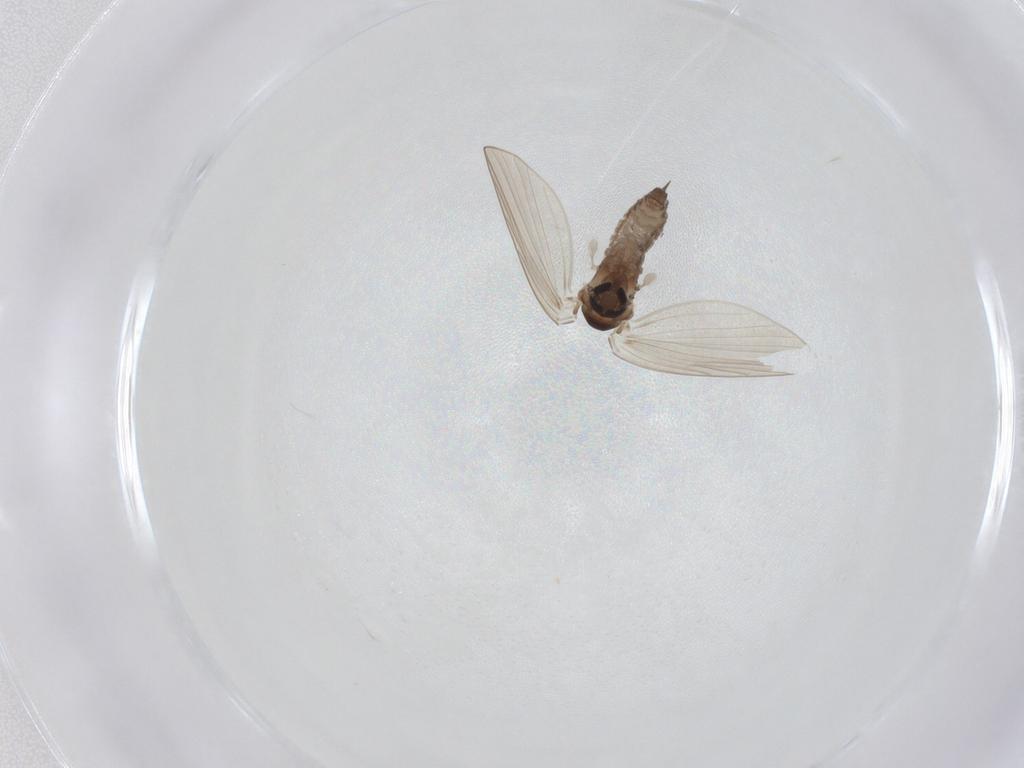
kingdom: Animalia
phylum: Arthropoda
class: Insecta
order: Diptera
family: Psychodidae
